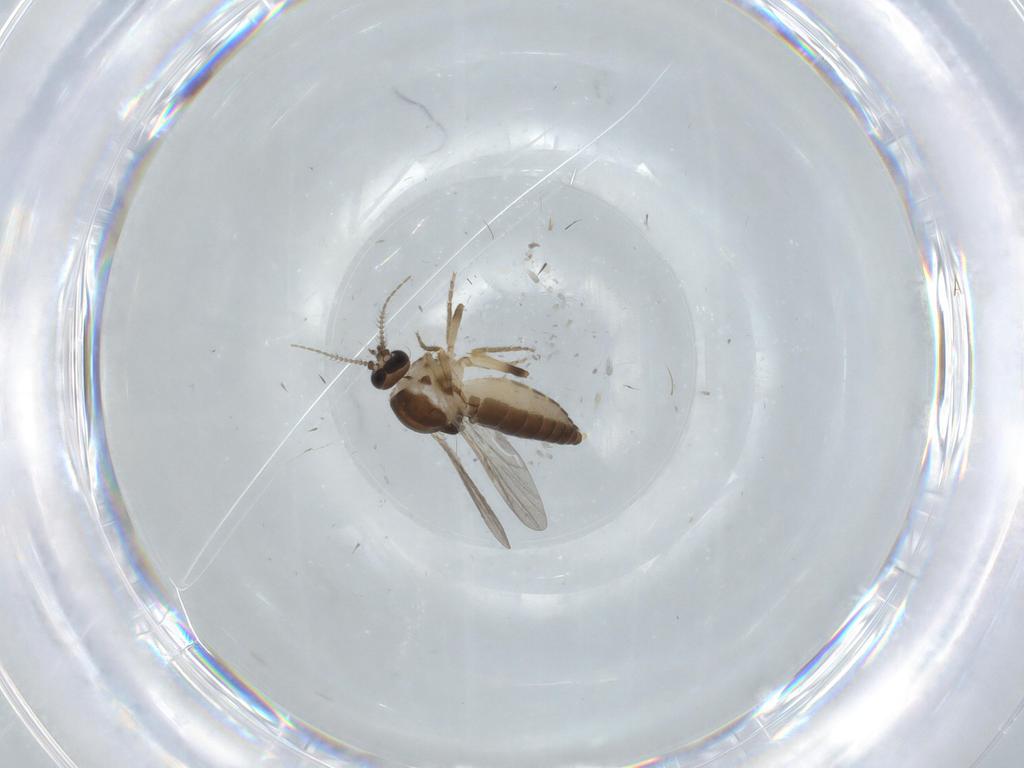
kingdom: Animalia
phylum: Arthropoda
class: Insecta
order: Diptera
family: Ceratopogonidae
